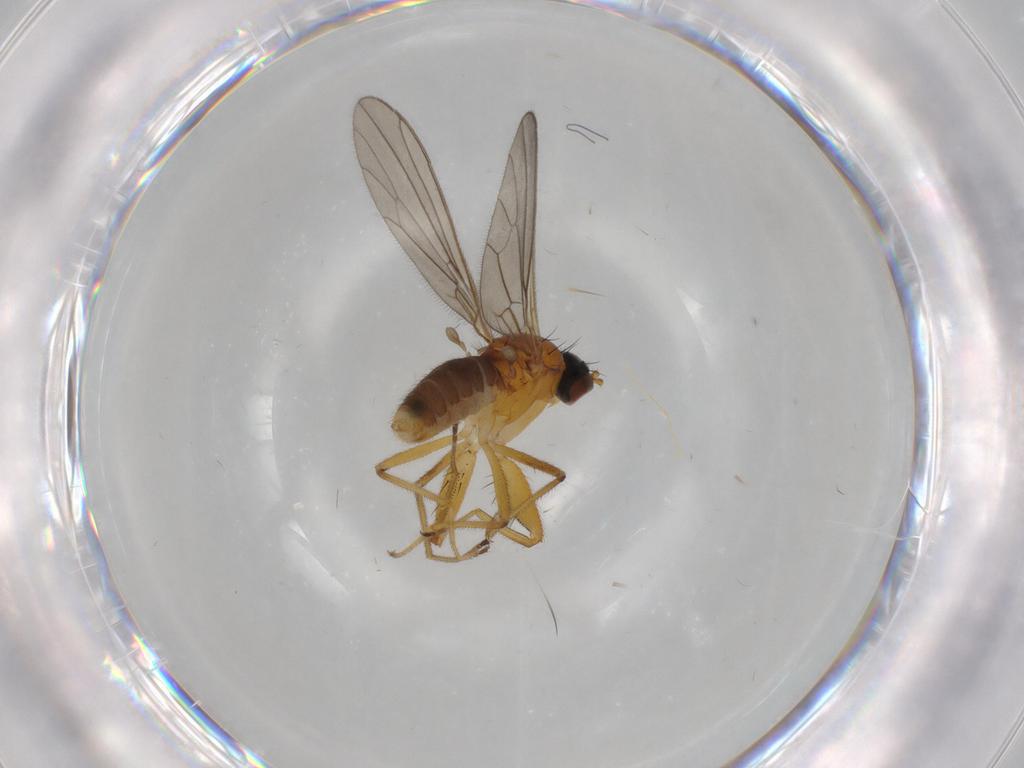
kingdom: Animalia
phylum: Arthropoda
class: Insecta
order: Diptera
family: Empididae
